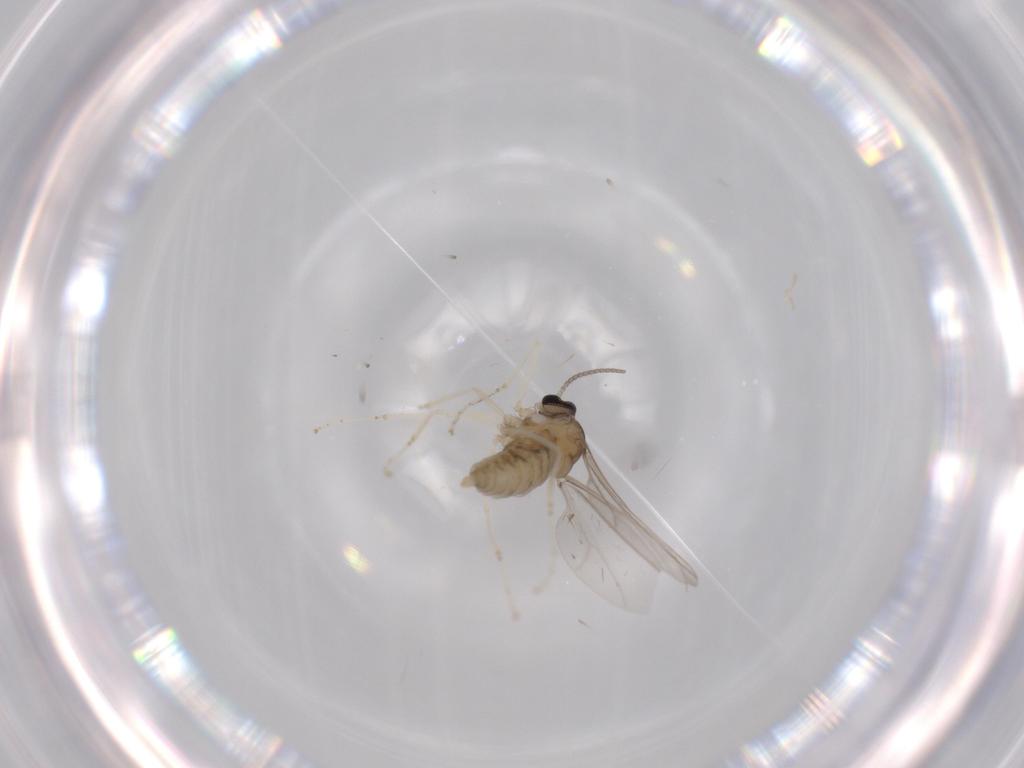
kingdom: Animalia
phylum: Arthropoda
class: Insecta
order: Diptera
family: Cecidomyiidae
